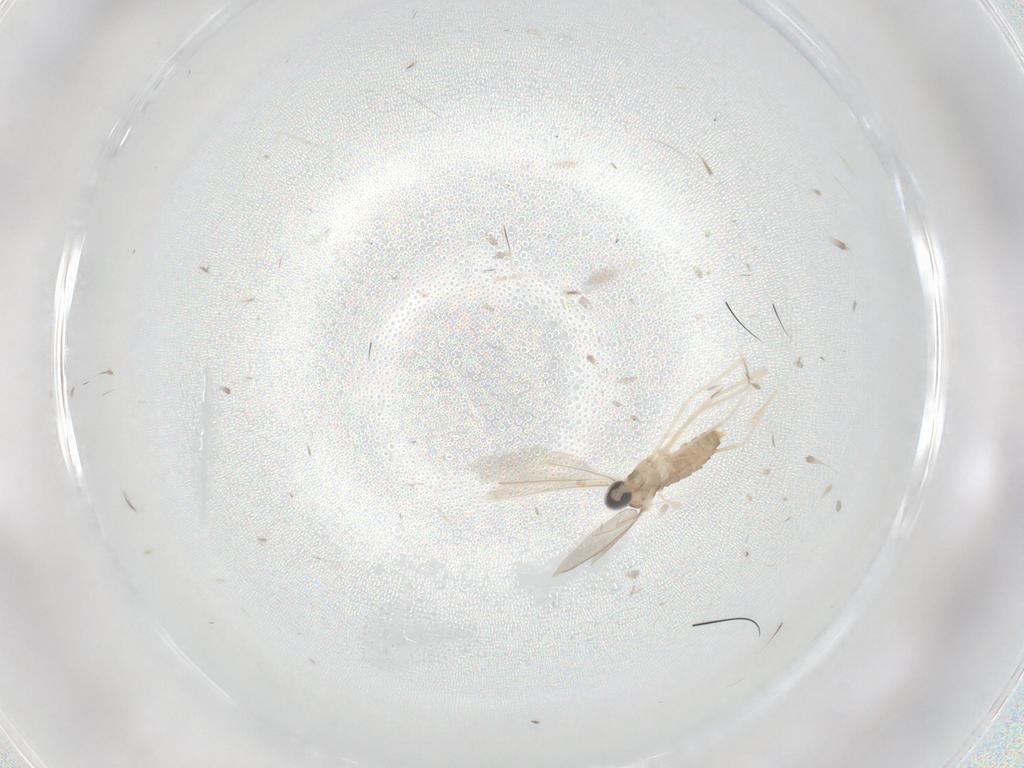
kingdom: Animalia
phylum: Arthropoda
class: Insecta
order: Diptera
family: Cecidomyiidae
